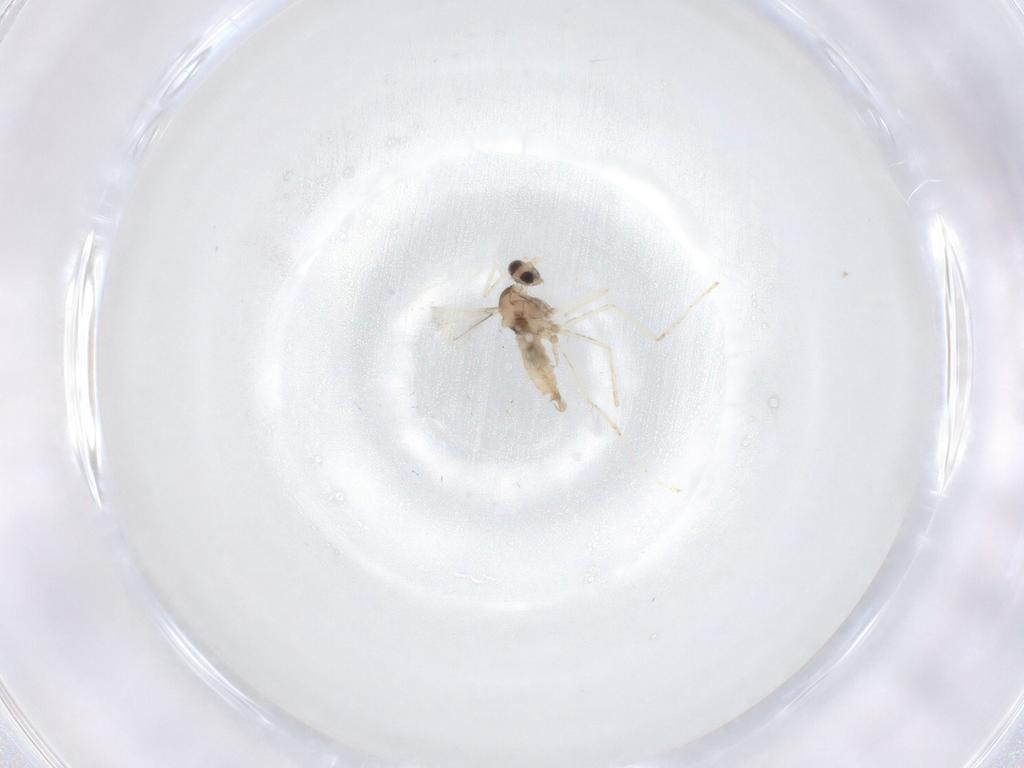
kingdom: Animalia
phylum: Arthropoda
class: Insecta
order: Diptera
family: Cecidomyiidae
